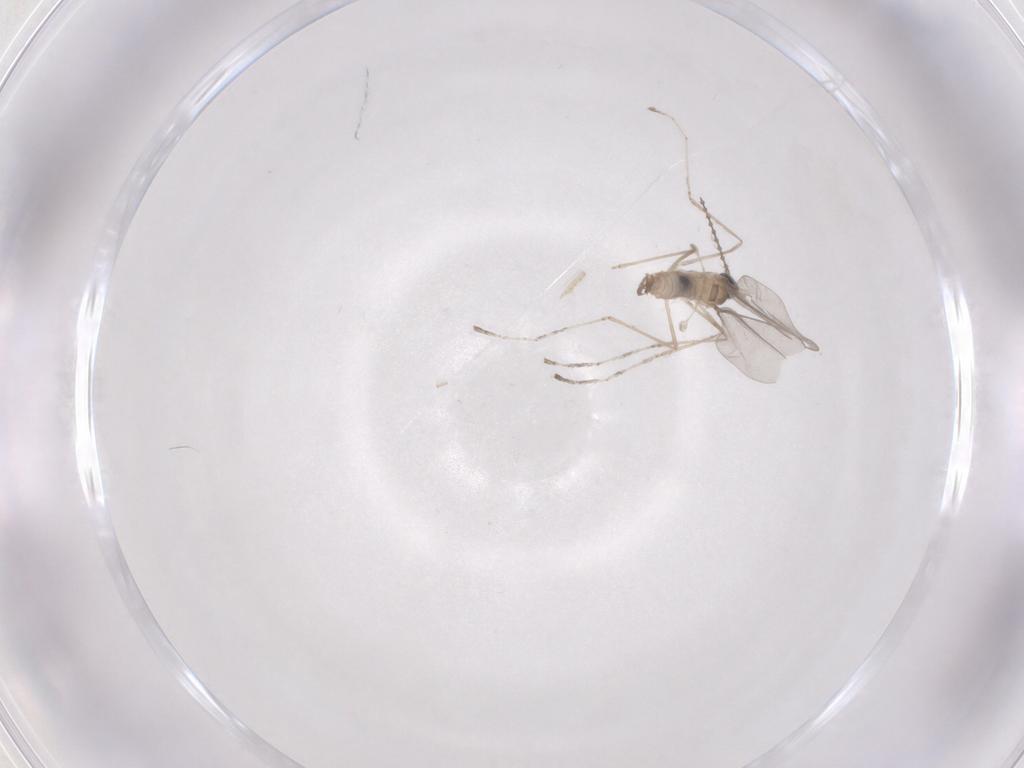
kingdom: Animalia
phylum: Arthropoda
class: Insecta
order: Diptera
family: Cecidomyiidae
